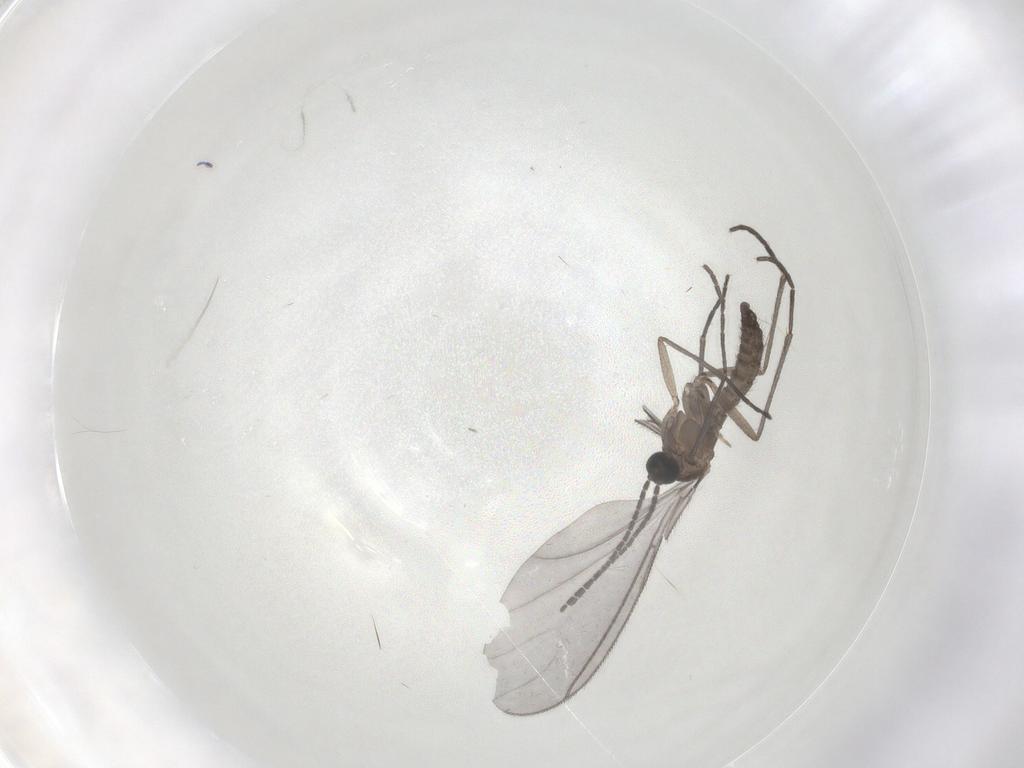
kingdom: Animalia
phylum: Arthropoda
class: Insecta
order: Diptera
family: Sciaridae
